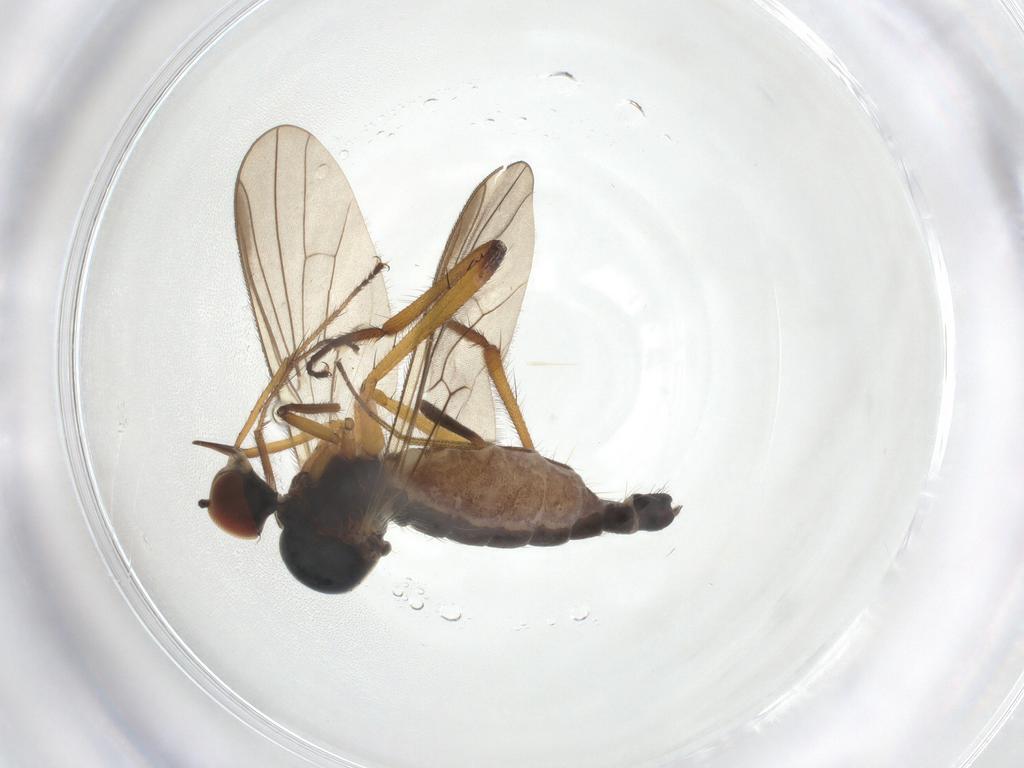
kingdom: Animalia
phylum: Arthropoda
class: Insecta
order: Diptera
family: Hybotidae
